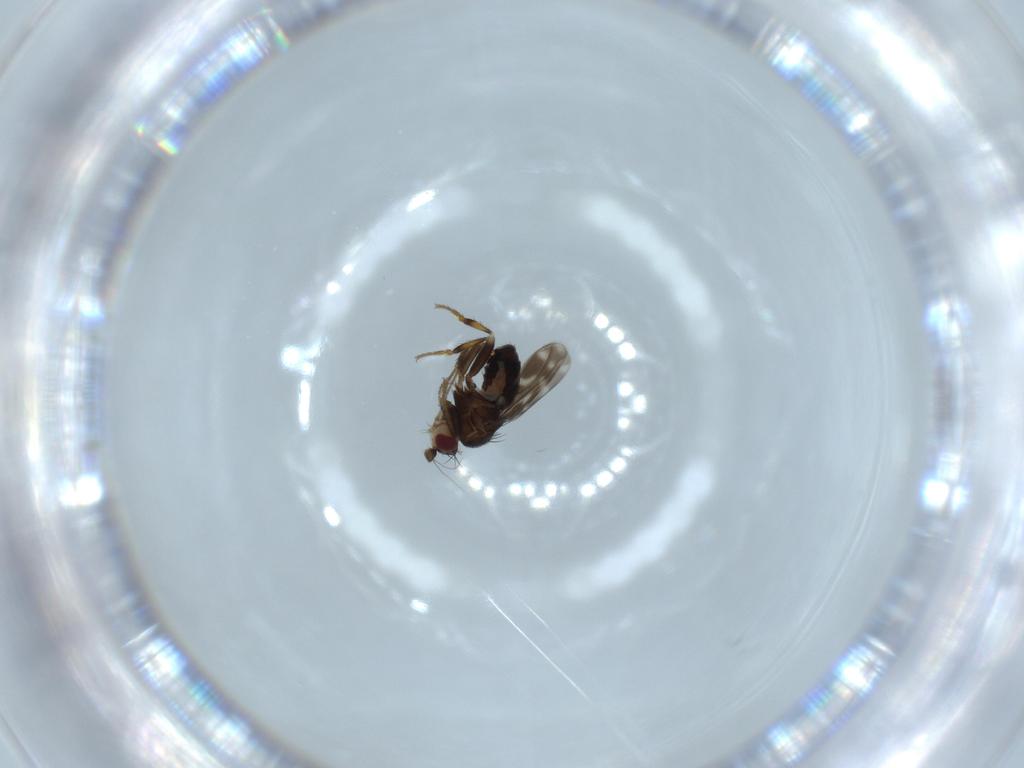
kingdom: Animalia
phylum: Arthropoda
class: Insecta
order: Diptera
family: Sphaeroceridae
